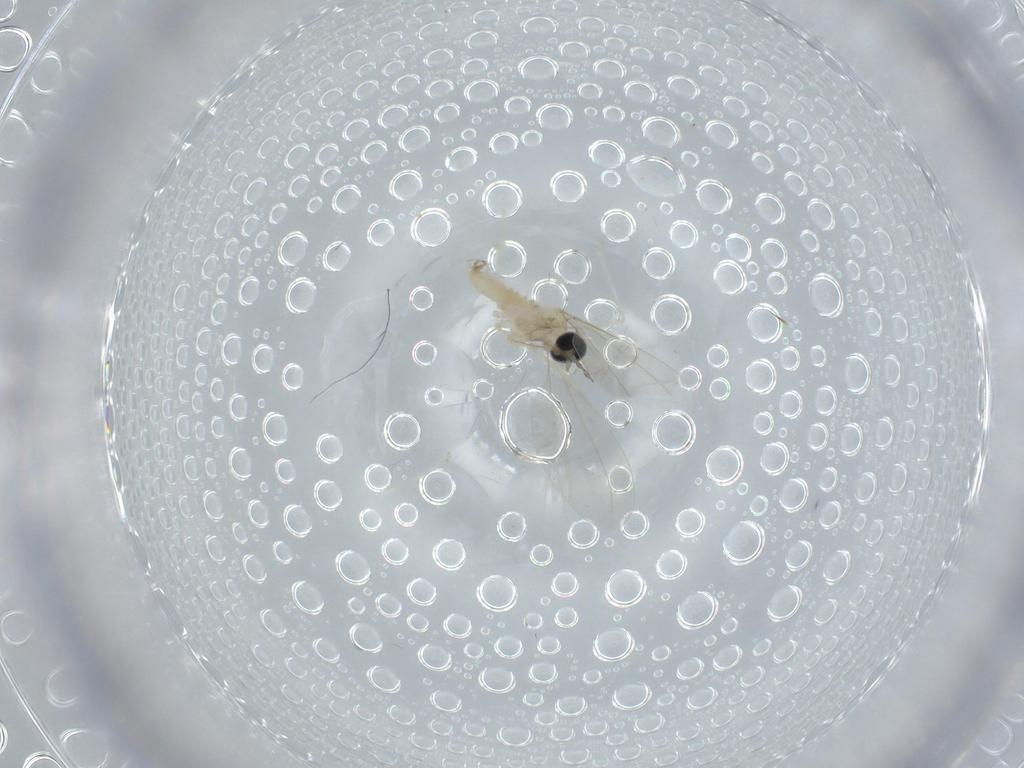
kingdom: Animalia
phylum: Arthropoda
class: Insecta
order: Diptera
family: Cecidomyiidae
